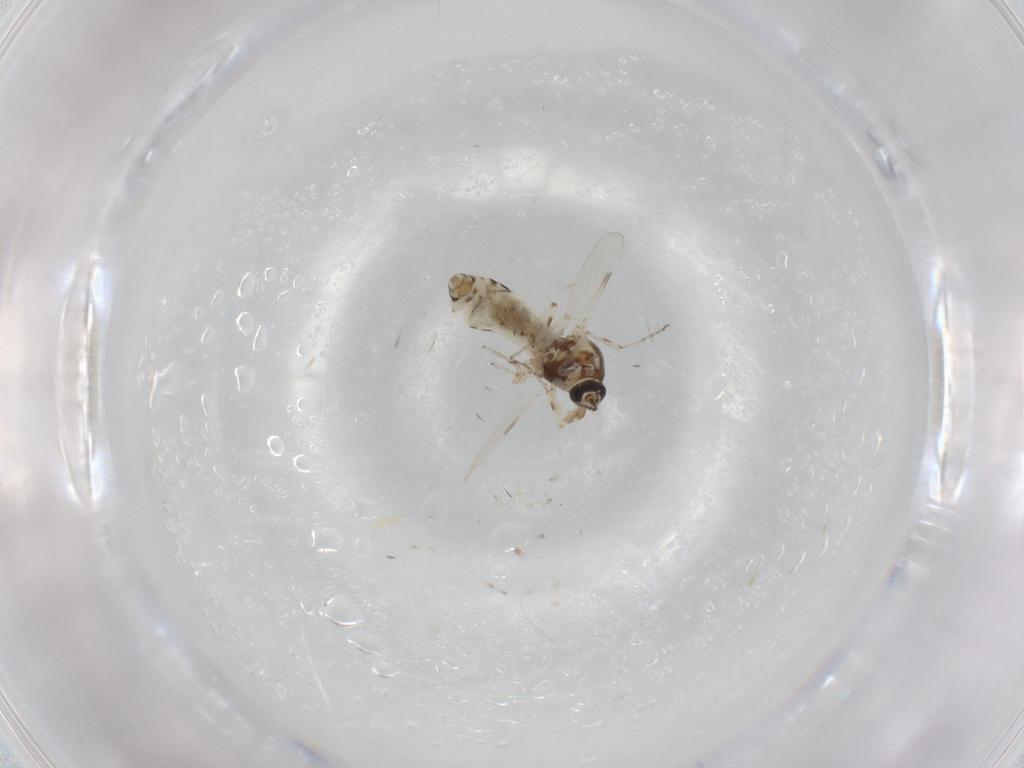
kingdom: Animalia
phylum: Arthropoda
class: Insecta
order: Diptera
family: Ceratopogonidae
